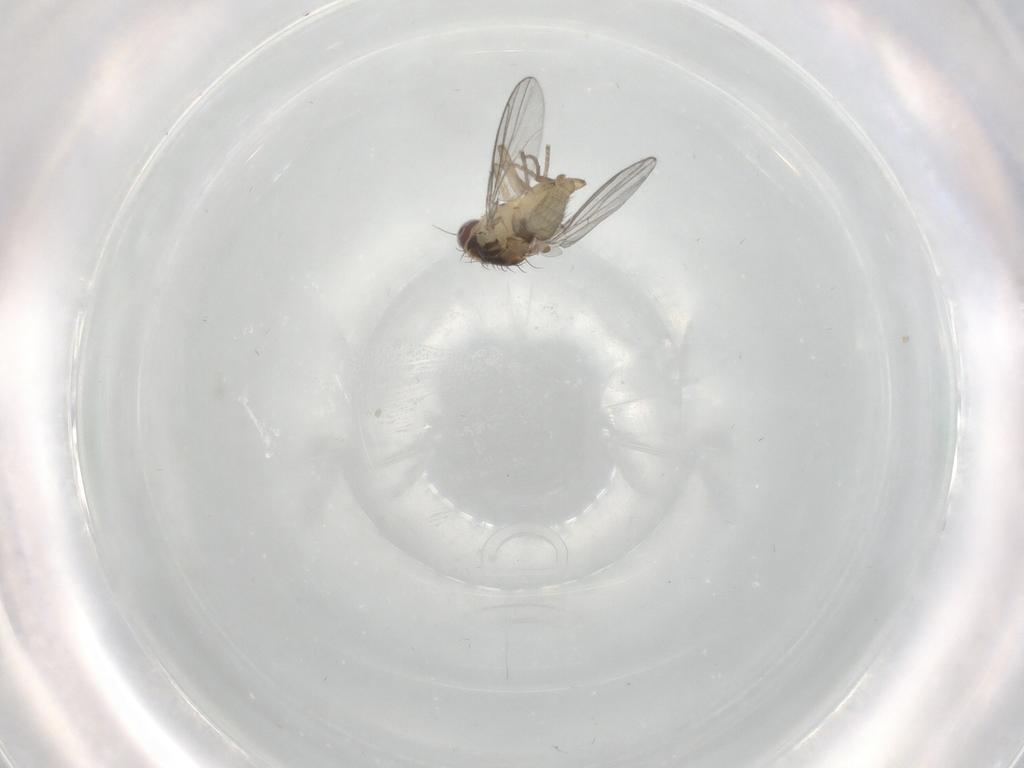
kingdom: Animalia
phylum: Arthropoda
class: Insecta
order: Diptera
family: Agromyzidae
